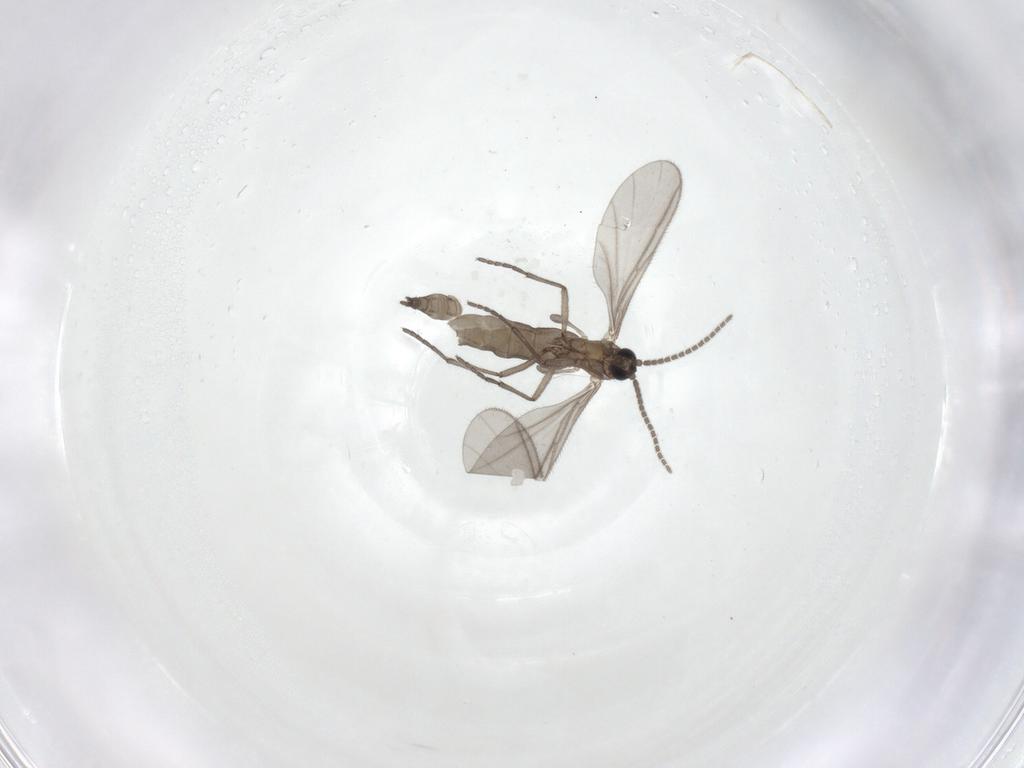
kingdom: Animalia
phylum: Arthropoda
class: Insecta
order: Diptera
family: Sciaridae
